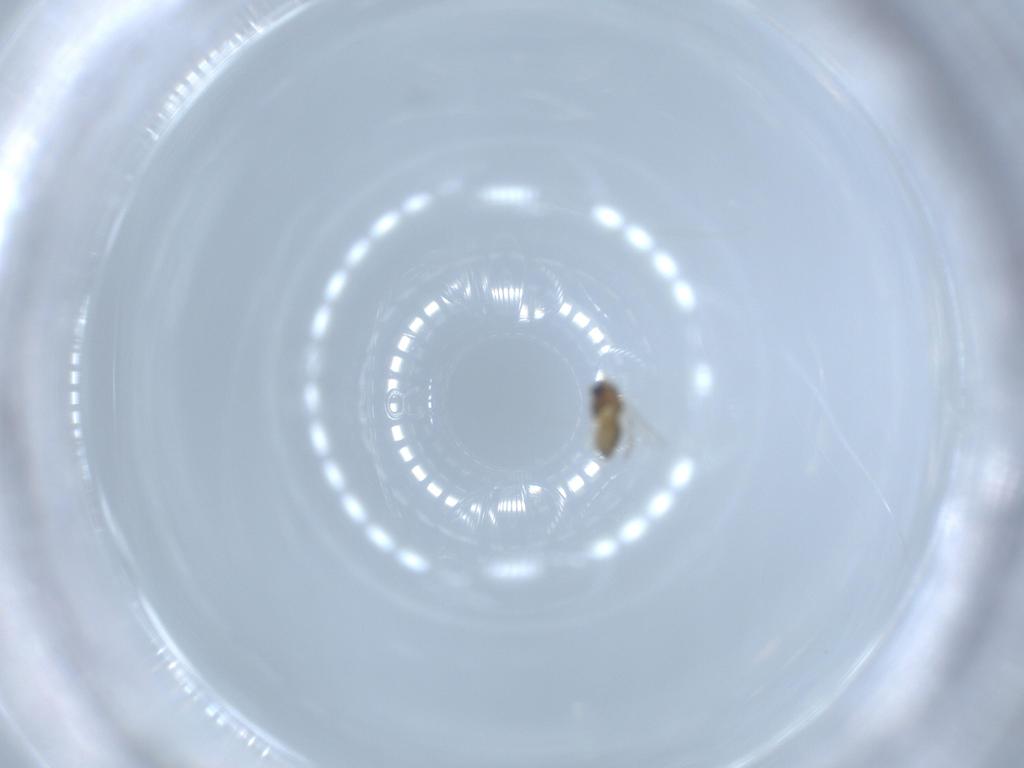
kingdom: Animalia
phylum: Arthropoda
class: Insecta
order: Diptera
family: Chironomidae
